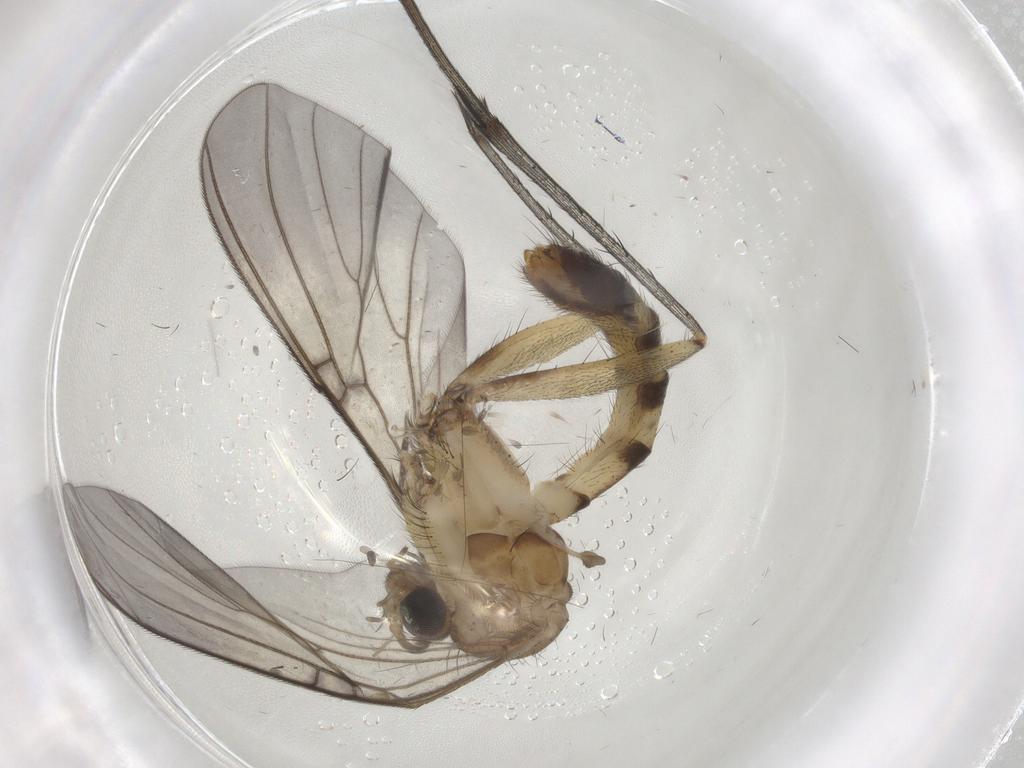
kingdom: Animalia
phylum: Arthropoda
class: Insecta
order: Diptera
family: Mycetophilidae
